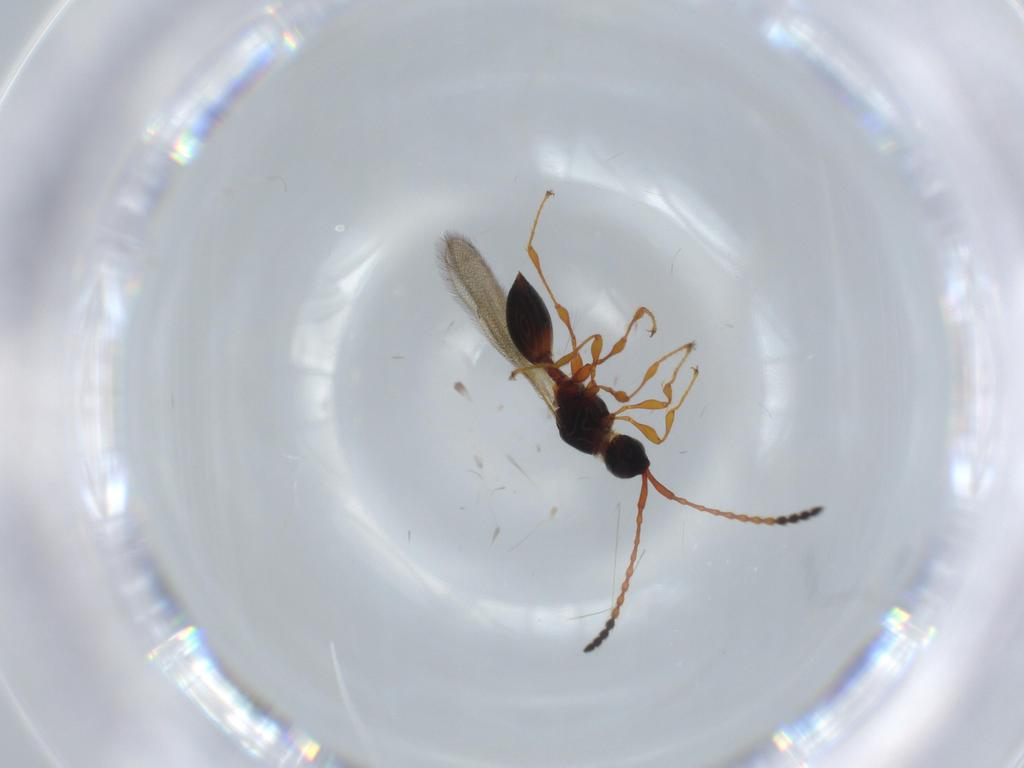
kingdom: Animalia
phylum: Arthropoda
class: Insecta
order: Hymenoptera
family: Diapriidae
